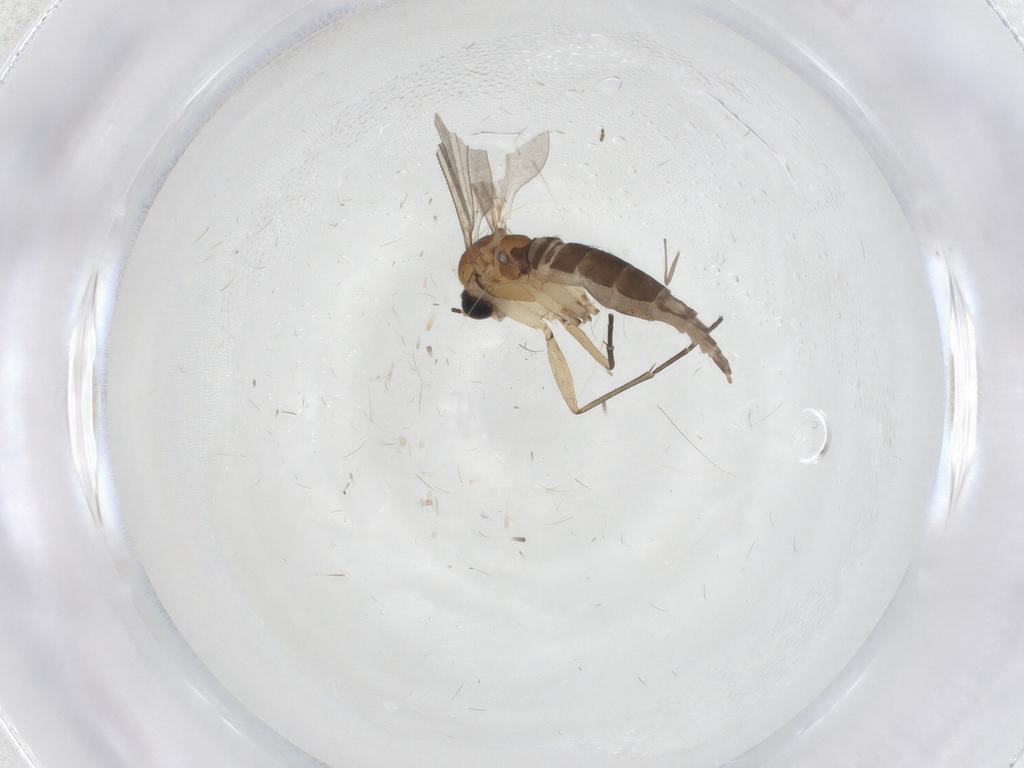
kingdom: Animalia
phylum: Arthropoda
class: Insecta
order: Diptera
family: Sciaridae
